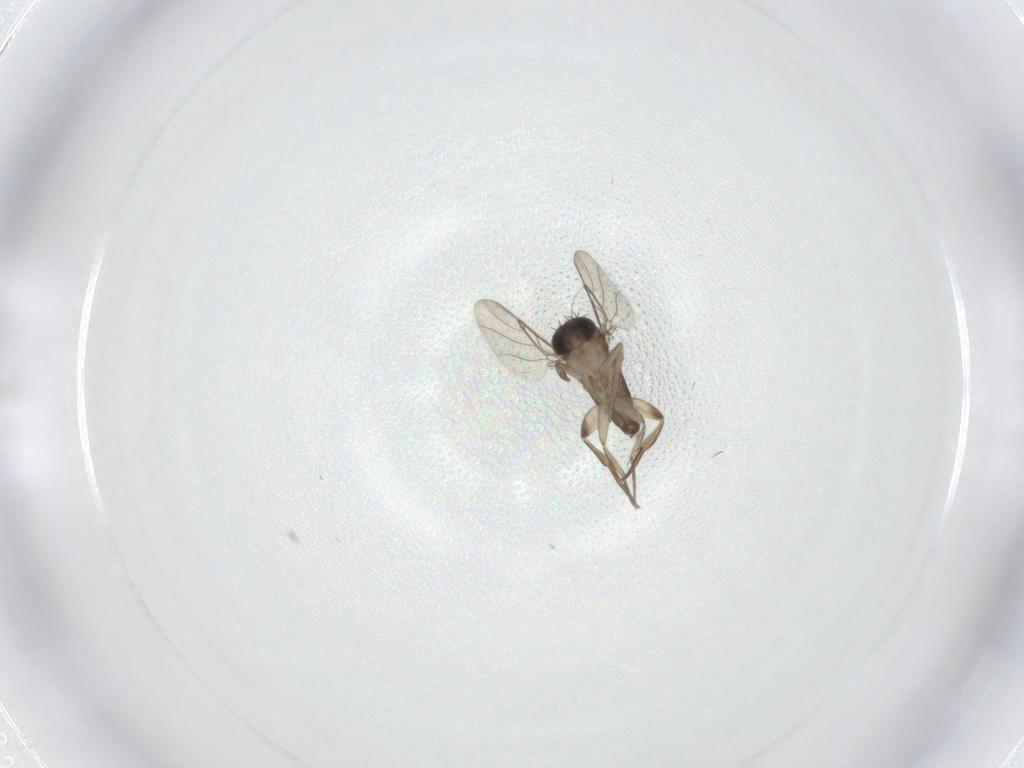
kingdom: Animalia
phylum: Arthropoda
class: Insecta
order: Diptera
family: Phoridae
